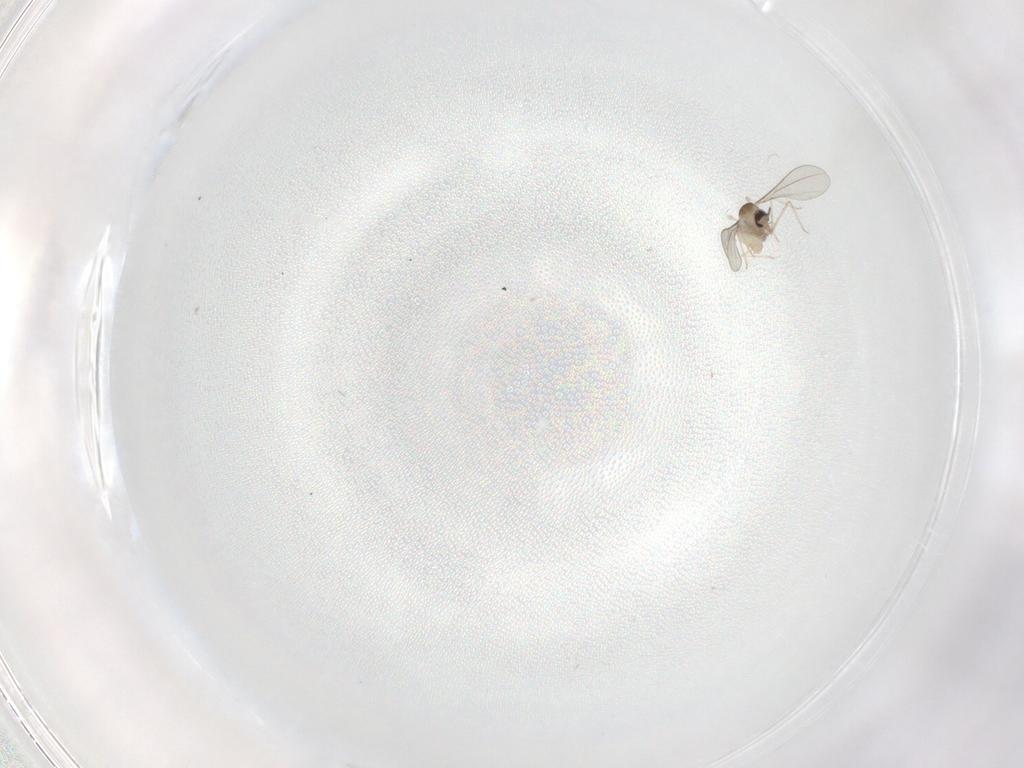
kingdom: Animalia
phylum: Arthropoda
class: Insecta
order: Diptera
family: Cecidomyiidae
